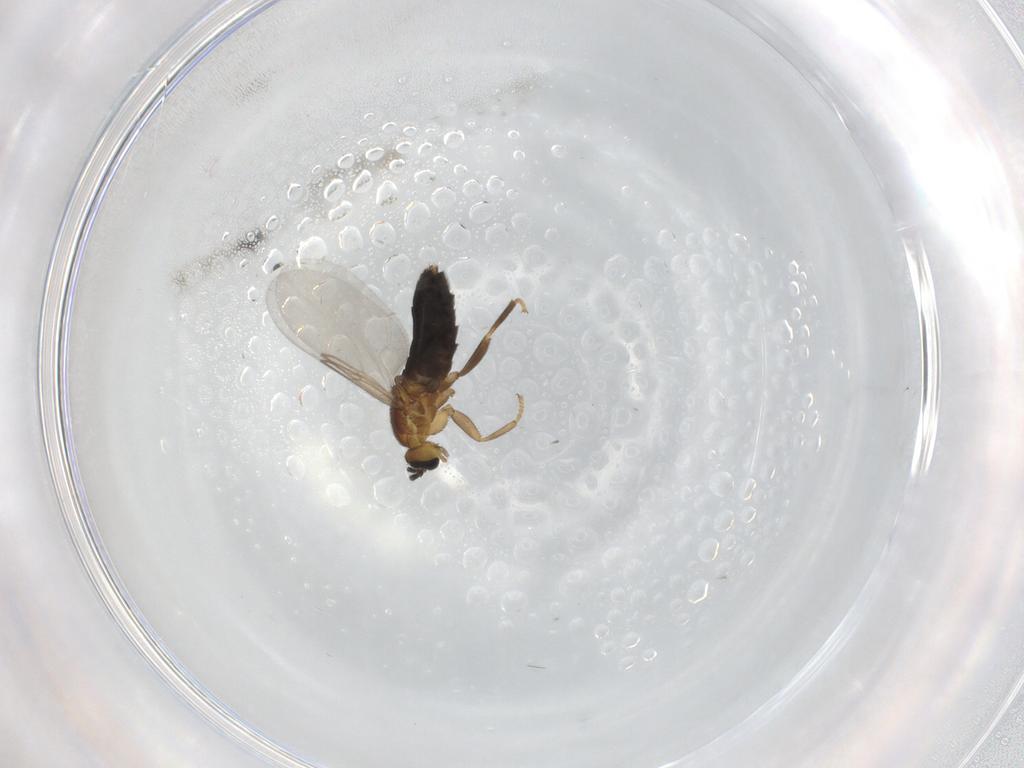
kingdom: Animalia
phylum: Arthropoda
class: Insecta
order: Diptera
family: Scatopsidae
